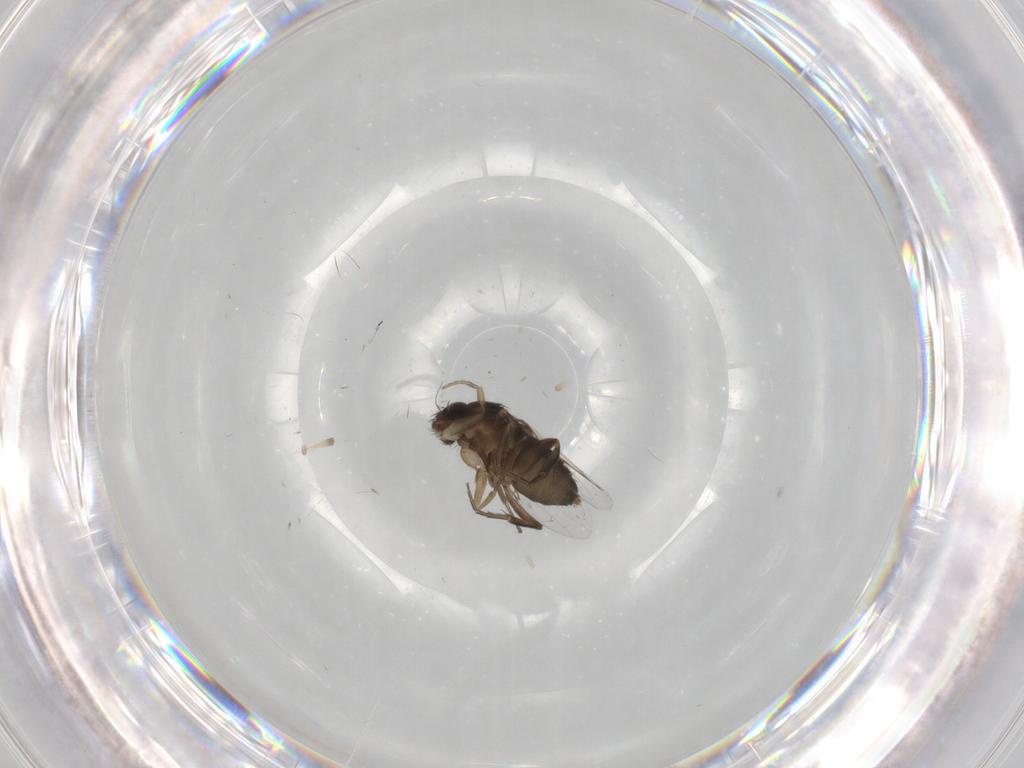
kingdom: Animalia
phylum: Arthropoda
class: Insecta
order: Diptera
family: Phoridae
